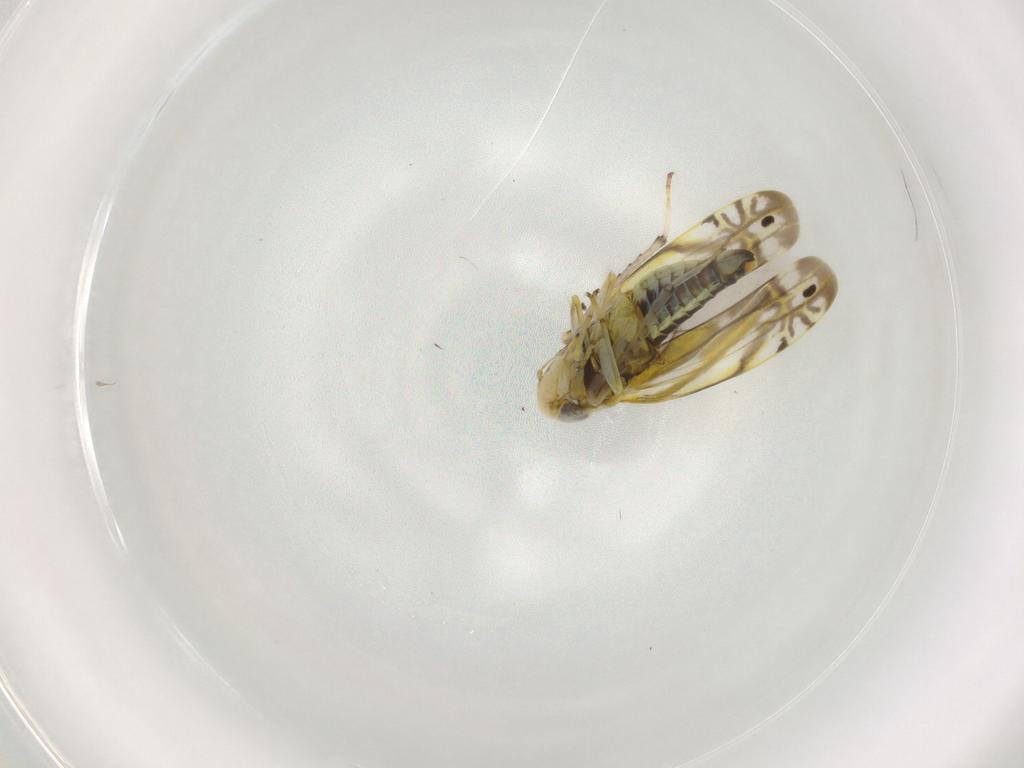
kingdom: Animalia
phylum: Arthropoda
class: Insecta
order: Hemiptera
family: Cicadellidae
